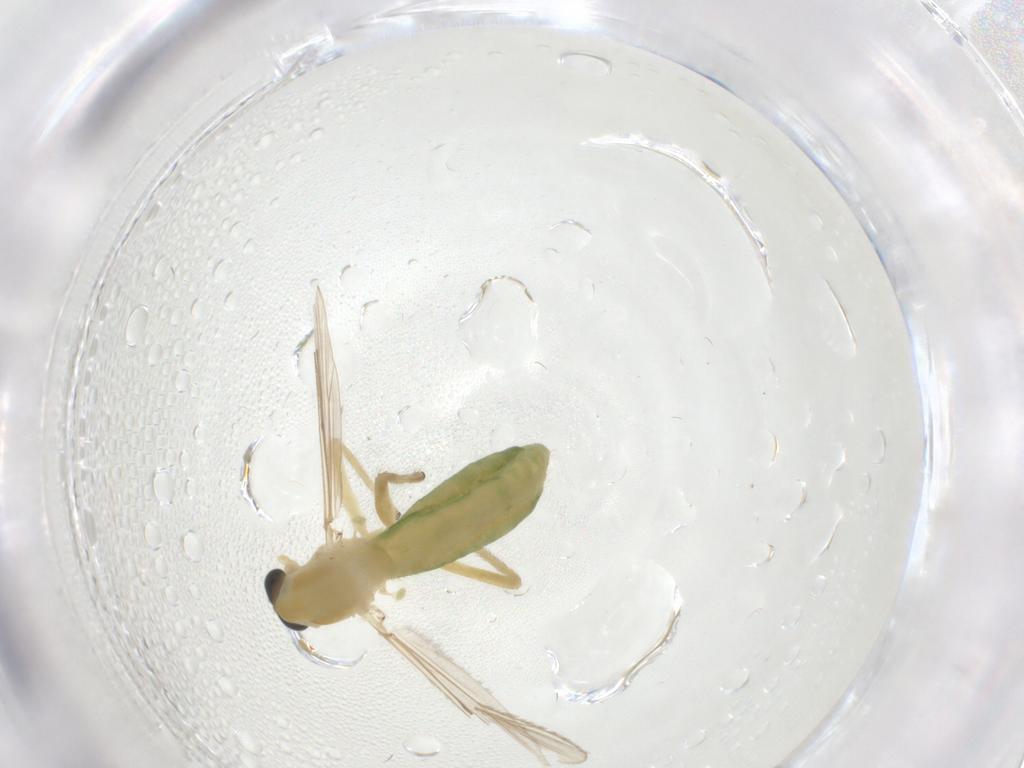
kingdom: Animalia
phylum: Arthropoda
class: Insecta
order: Diptera
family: Chironomidae
